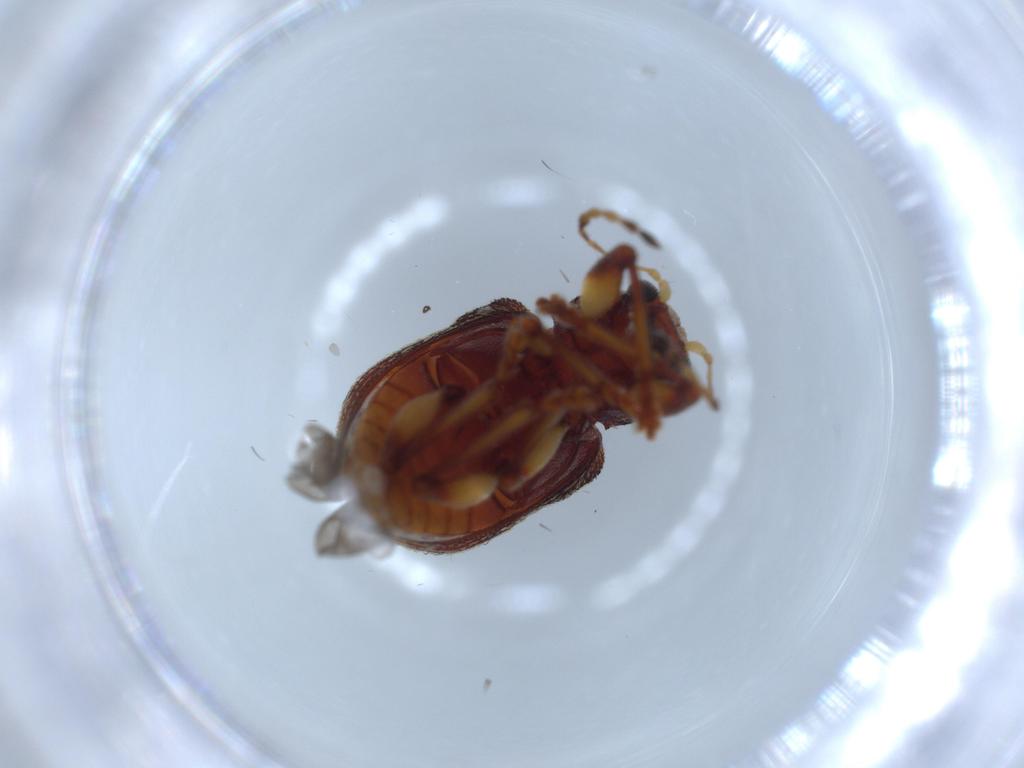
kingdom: Animalia
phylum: Arthropoda
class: Insecta
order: Coleoptera
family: Chrysomelidae
